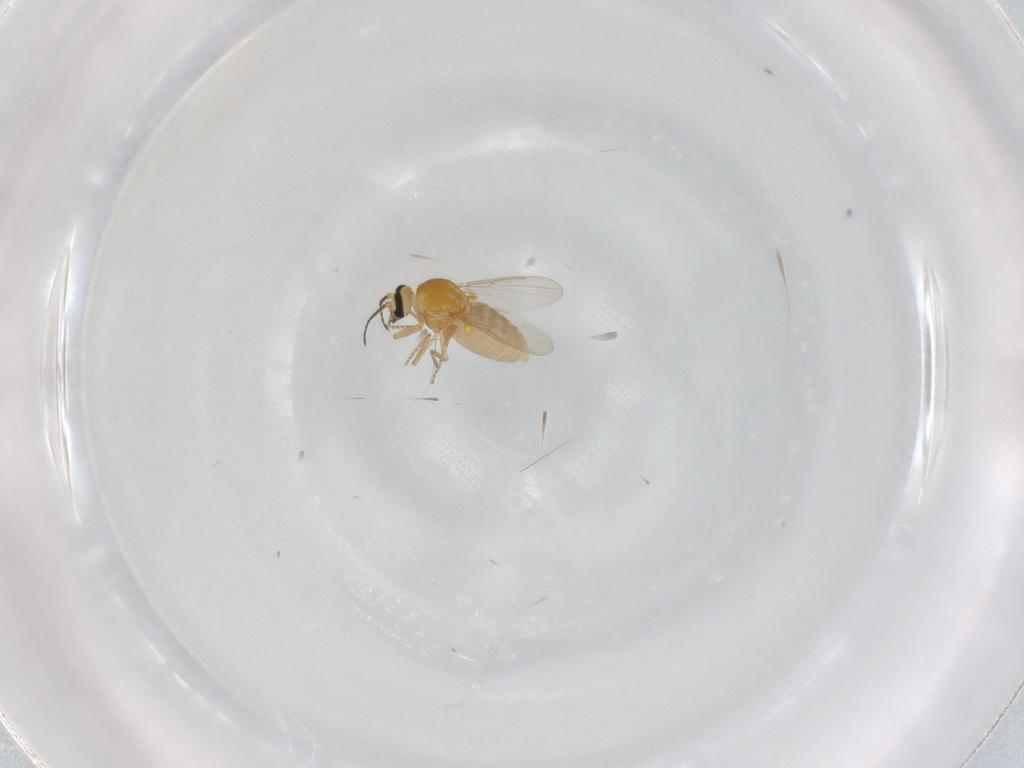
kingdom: Animalia
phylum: Arthropoda
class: Insecta
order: Diptera
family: Ceratopogonidae
